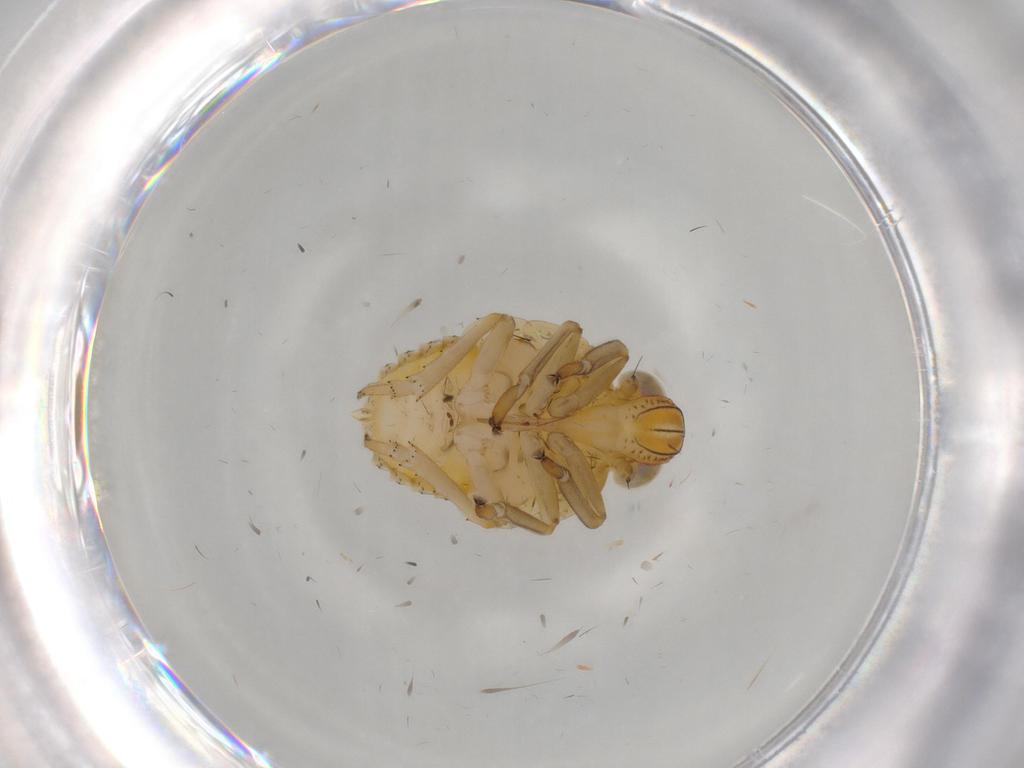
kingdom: Animalia
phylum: Arthropoda
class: Insecta
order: Hemiptera
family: Issidae
